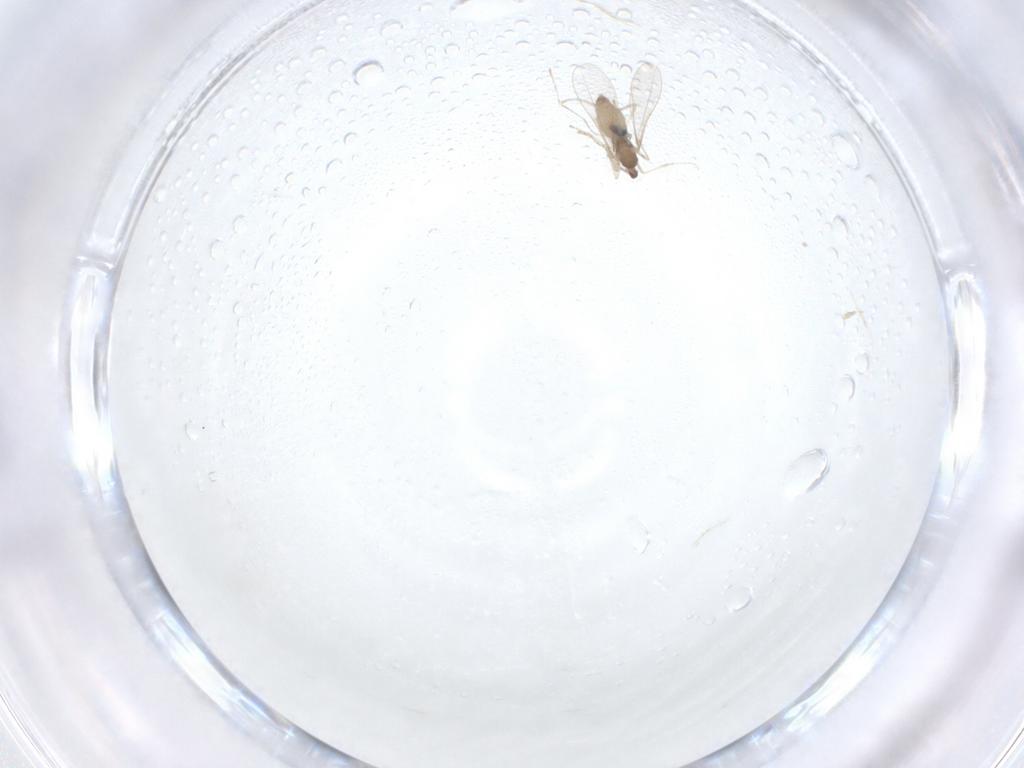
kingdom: Animalia
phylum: Arthropoda
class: Insecta
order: Diptera
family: Cecidomyiidae
